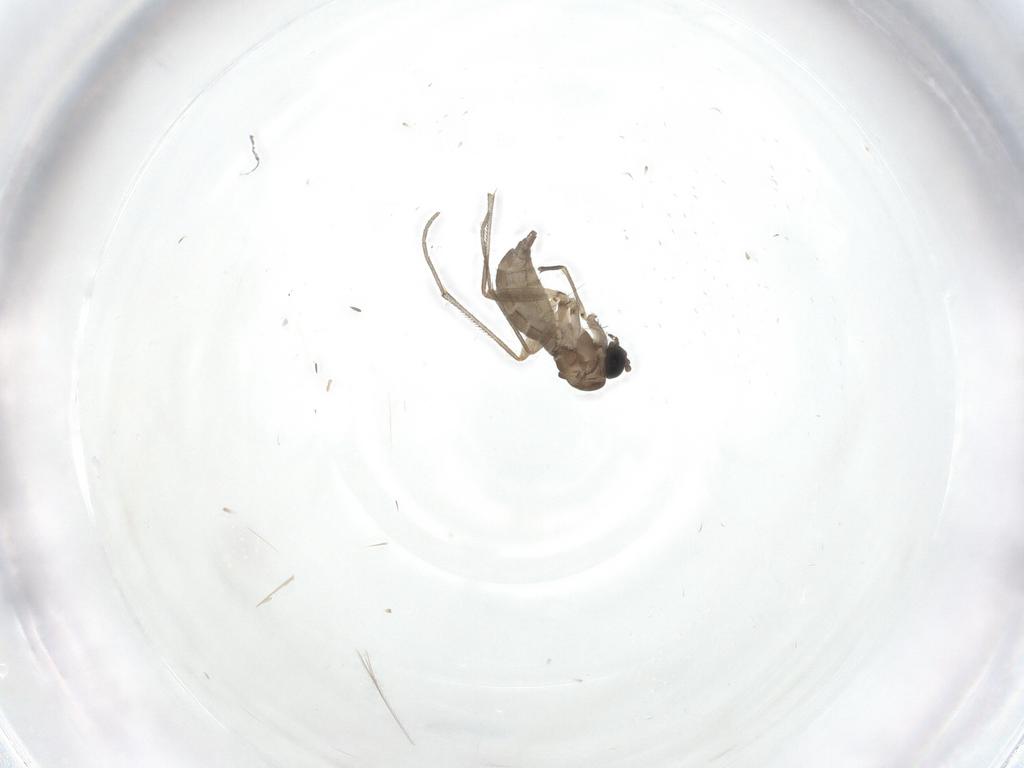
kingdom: Animalia
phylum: Arthropoda
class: Insecta
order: Diptera
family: Sciaridae
